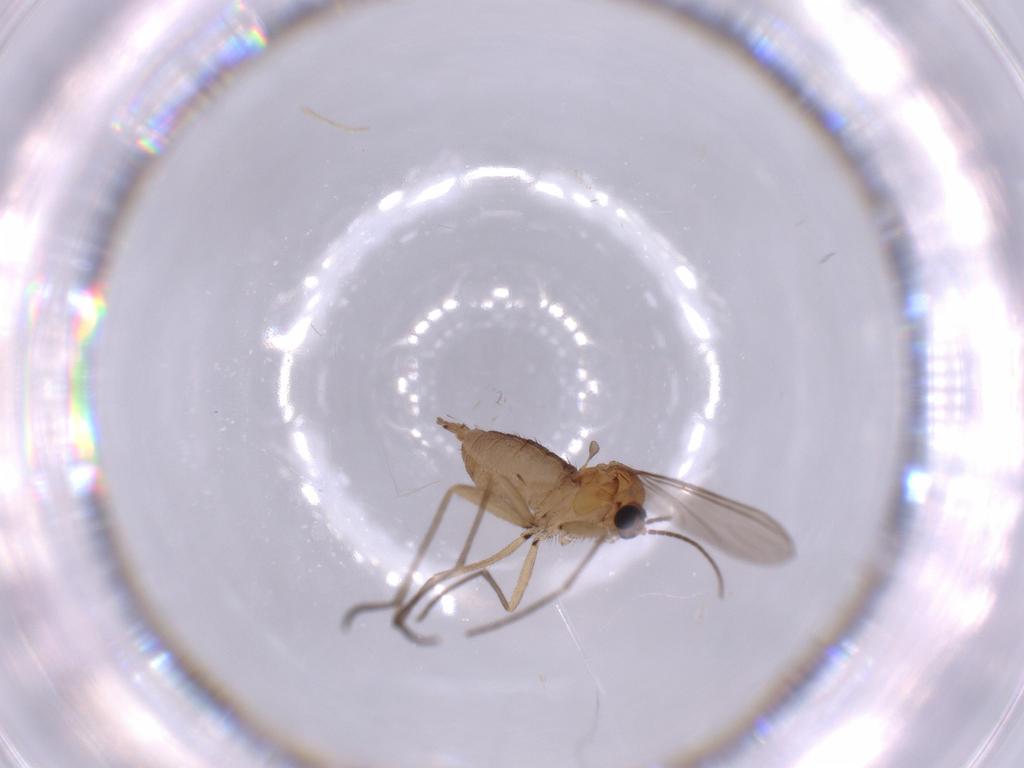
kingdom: Animalia
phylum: Arthropoda
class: Insecta
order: Diptera
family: Sciaridae
